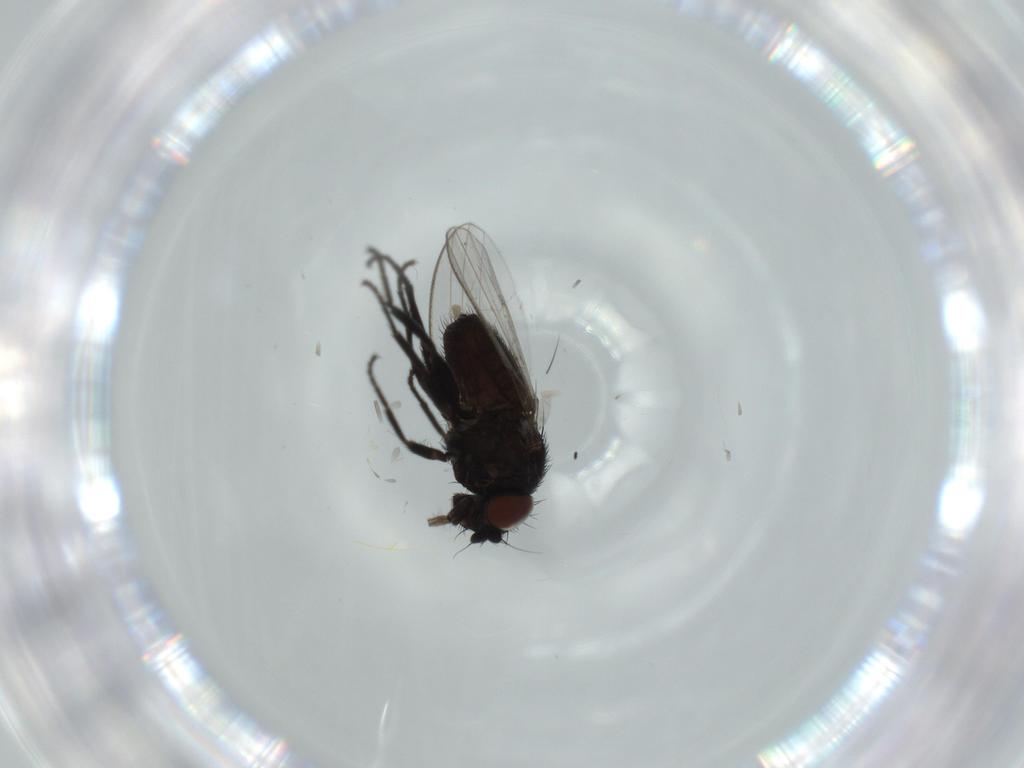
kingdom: Animalia
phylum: Arthropoda
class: Insecta
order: Diptera
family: Milichiidae
